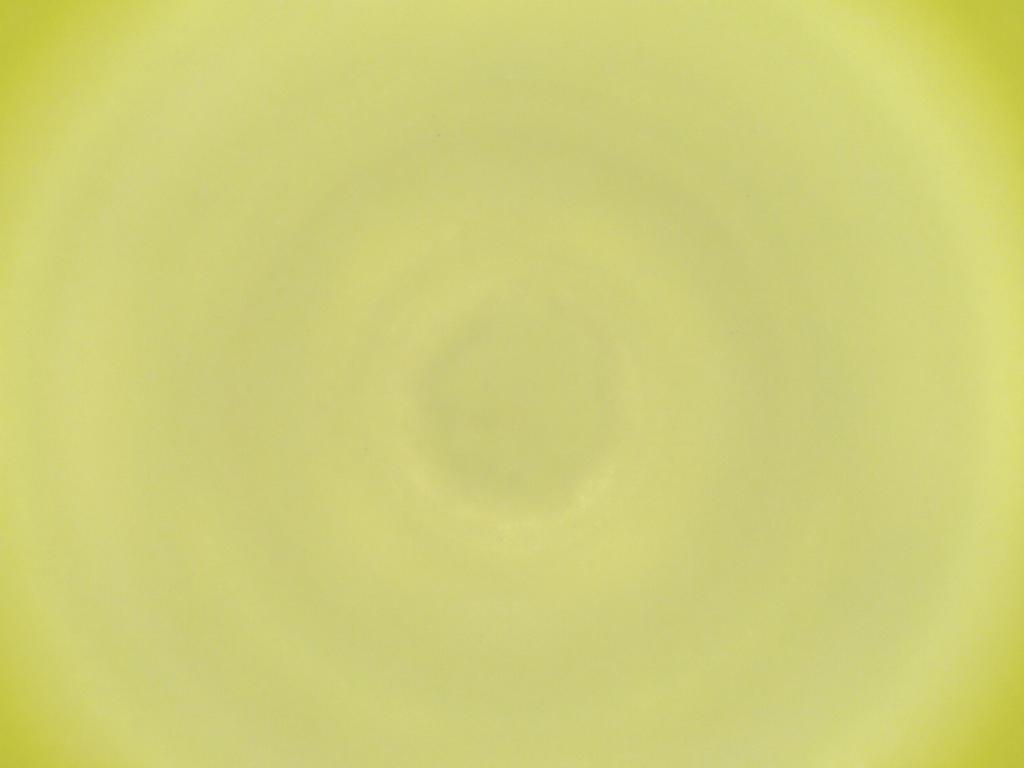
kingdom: Animalia
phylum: Arthropoda
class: Insecta
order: Diptera
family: Cecidomyiidae
